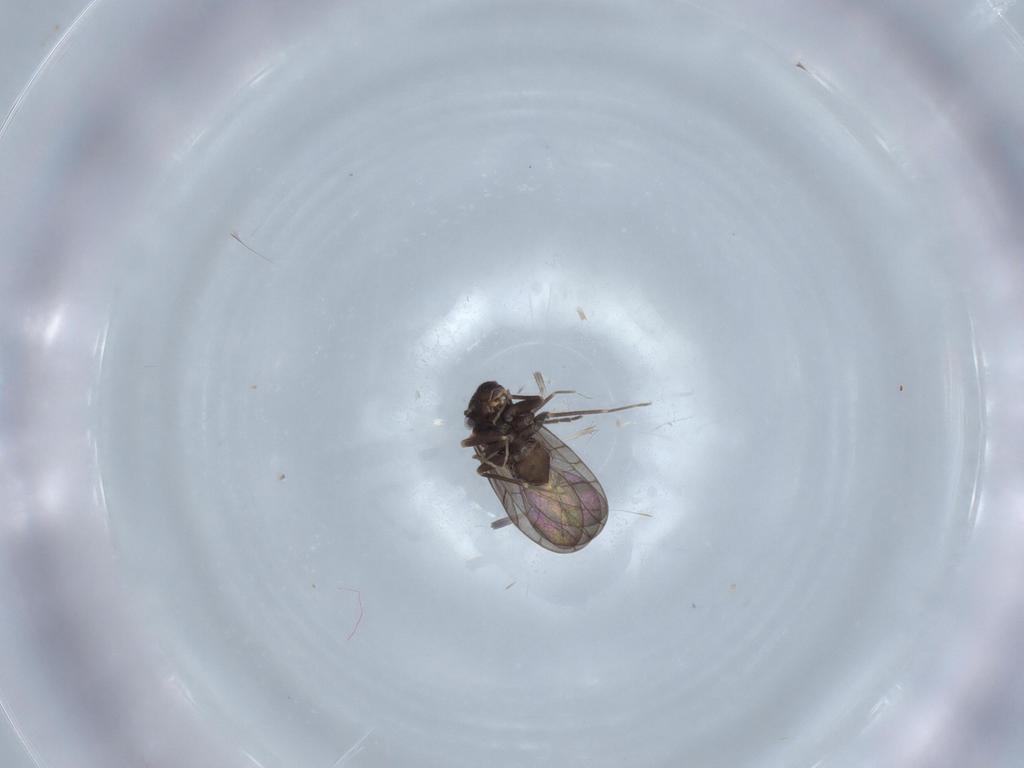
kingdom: Animalia
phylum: Arthropoda
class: Insecta
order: Psocodea
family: Lepidopsocidae
